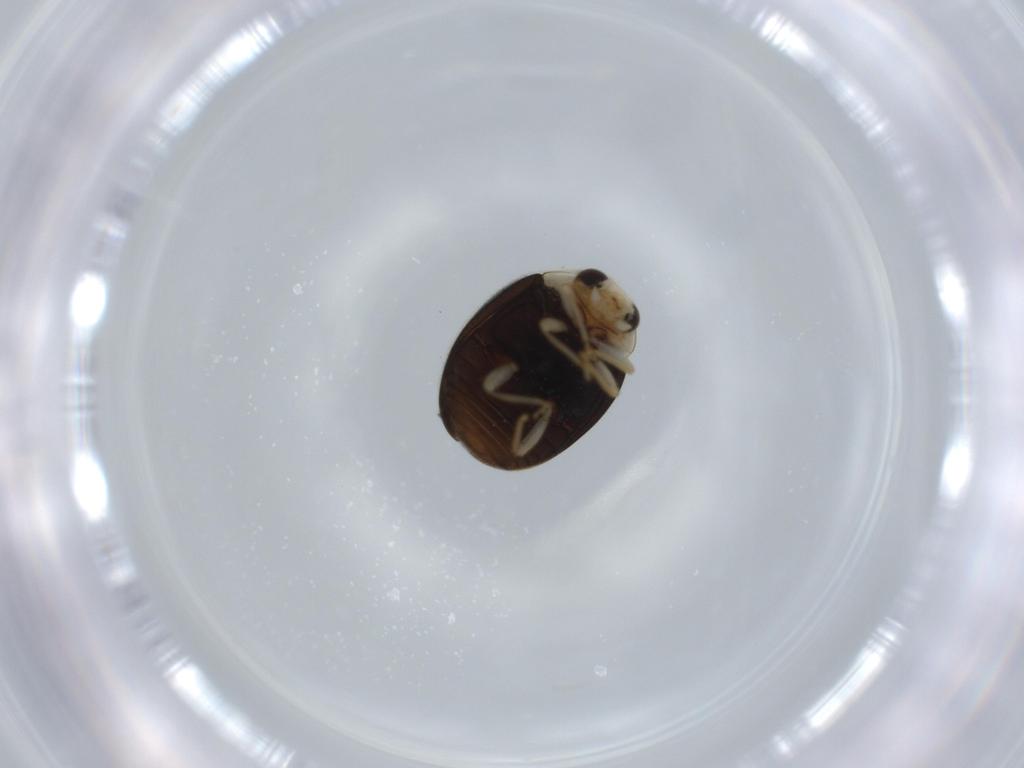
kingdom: Animalia
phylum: Arthropoda
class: Insecta
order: Coleoptera
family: Coccinellidae
